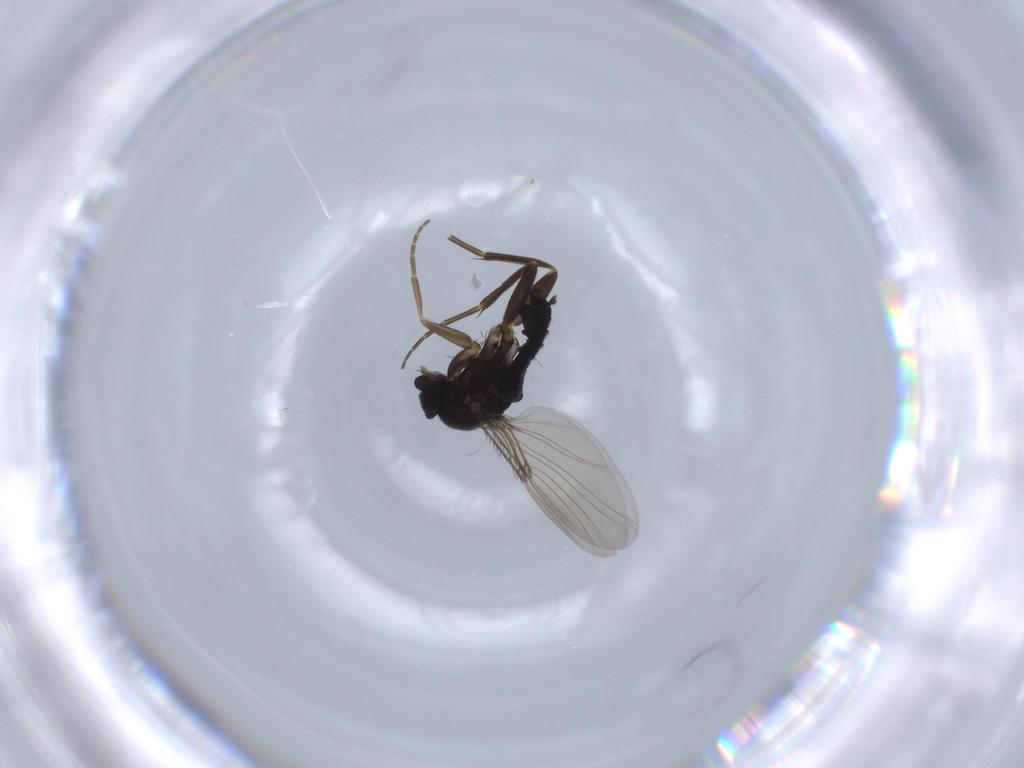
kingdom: Animalia
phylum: Arthropoda
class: Insecta
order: Diptera
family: Phoridae
